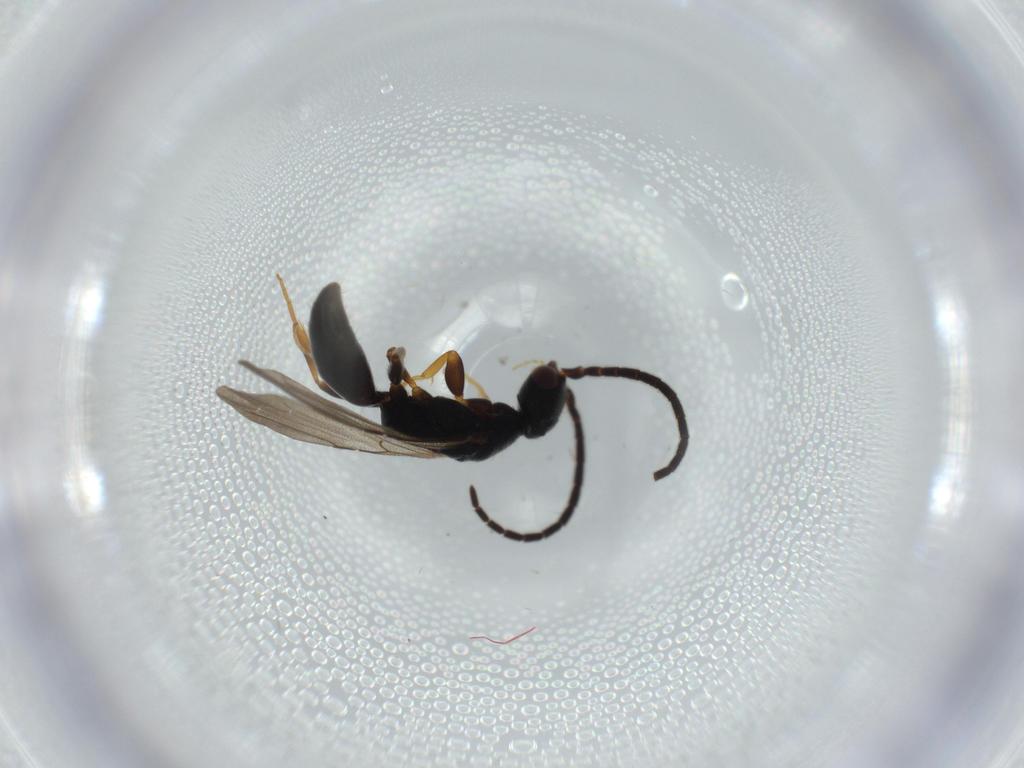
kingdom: Animalia
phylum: Arthropoda
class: Insecta
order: Hymenoptera
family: Bethylidae
